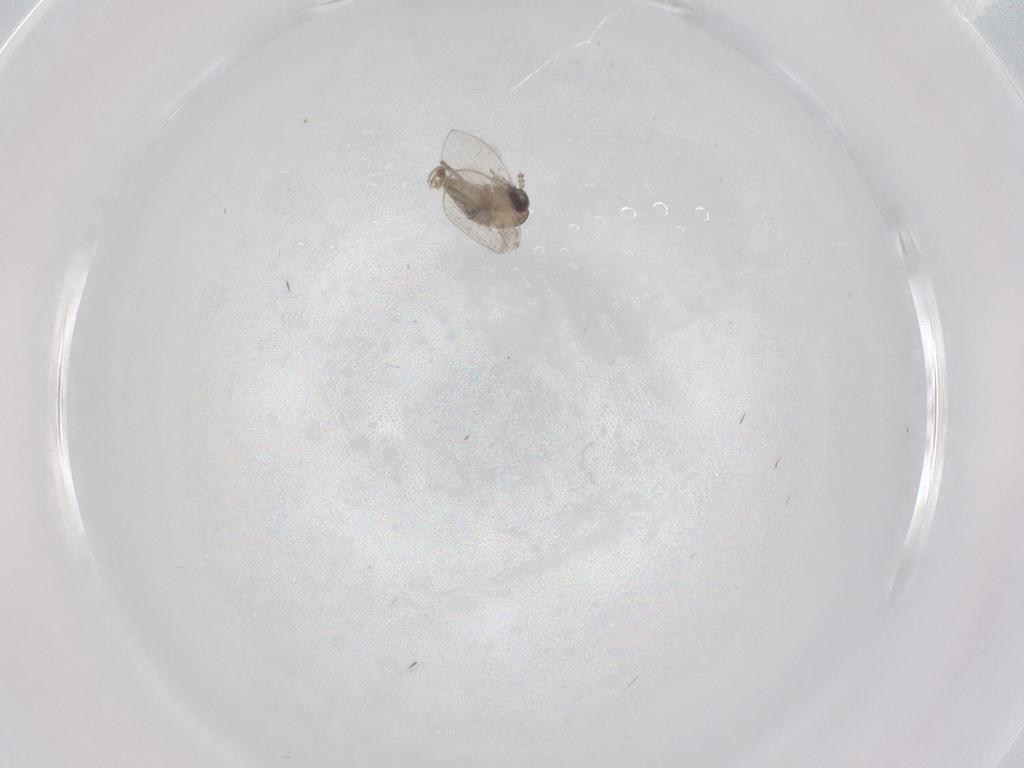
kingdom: Animalia
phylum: Arthropoda
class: Insecta
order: Diptera
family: Psychodidae
